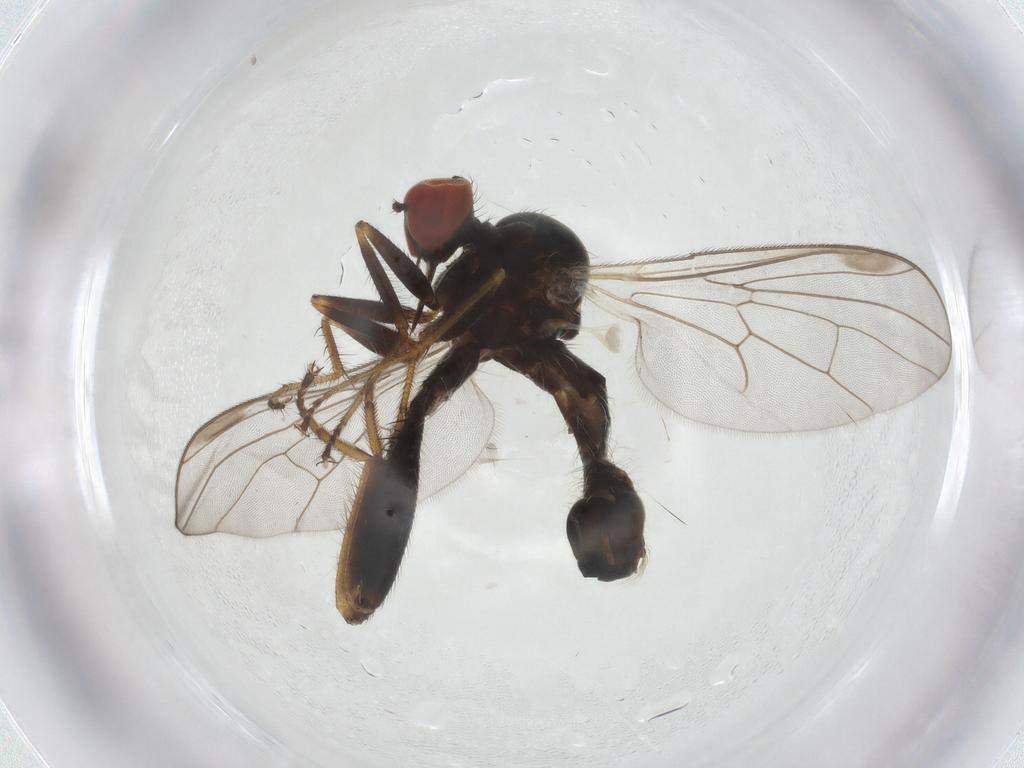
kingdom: Animalia
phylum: Arthropoda
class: Insecta
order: Diptera
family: Hybotidae
